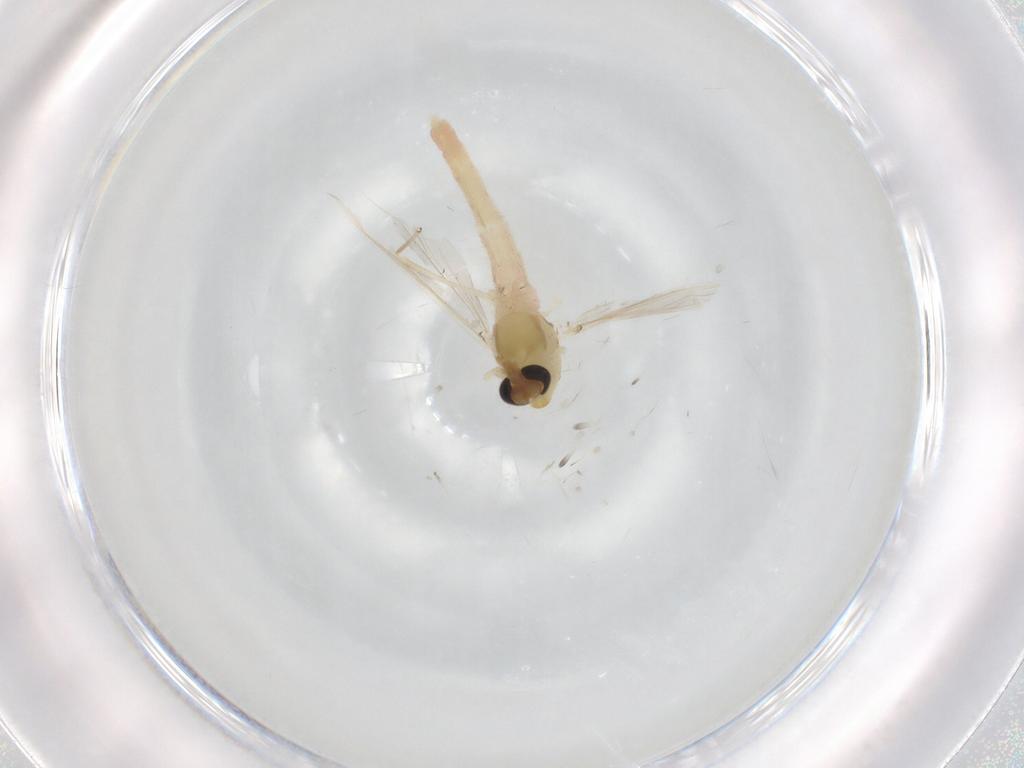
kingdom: Animalia
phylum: Arthropoda
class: Insecta
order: Diptera
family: Chironomidae
